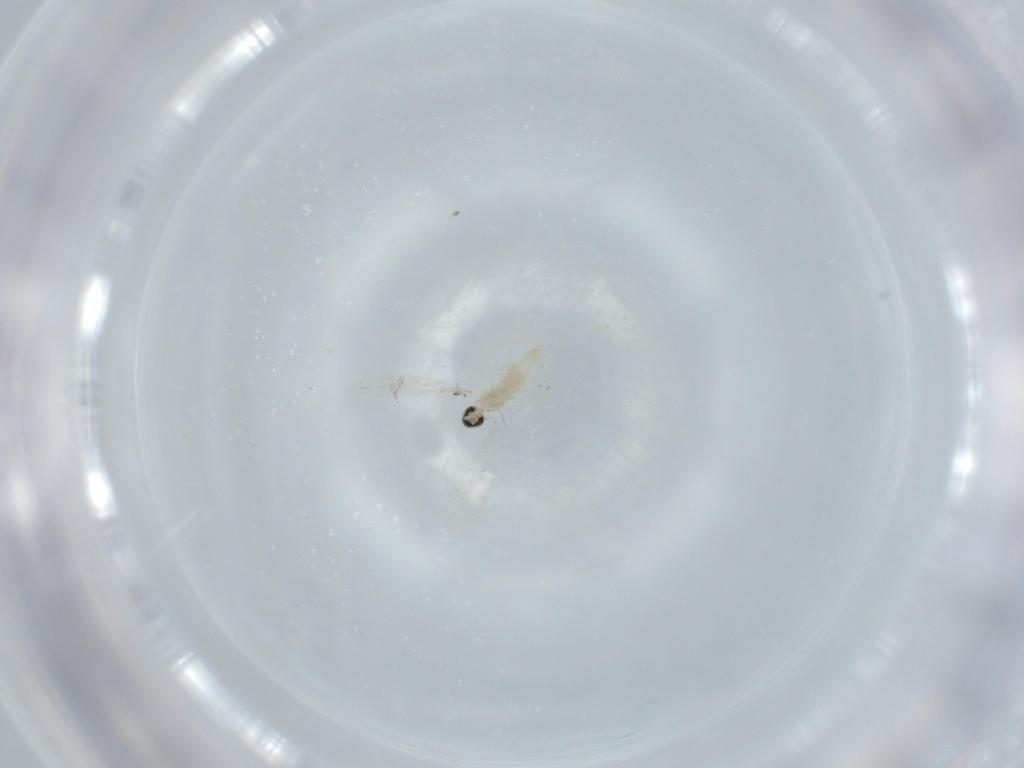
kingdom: Animalia
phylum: Arthropoda
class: Insecta
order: Diptera
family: Cecidomyiidae
